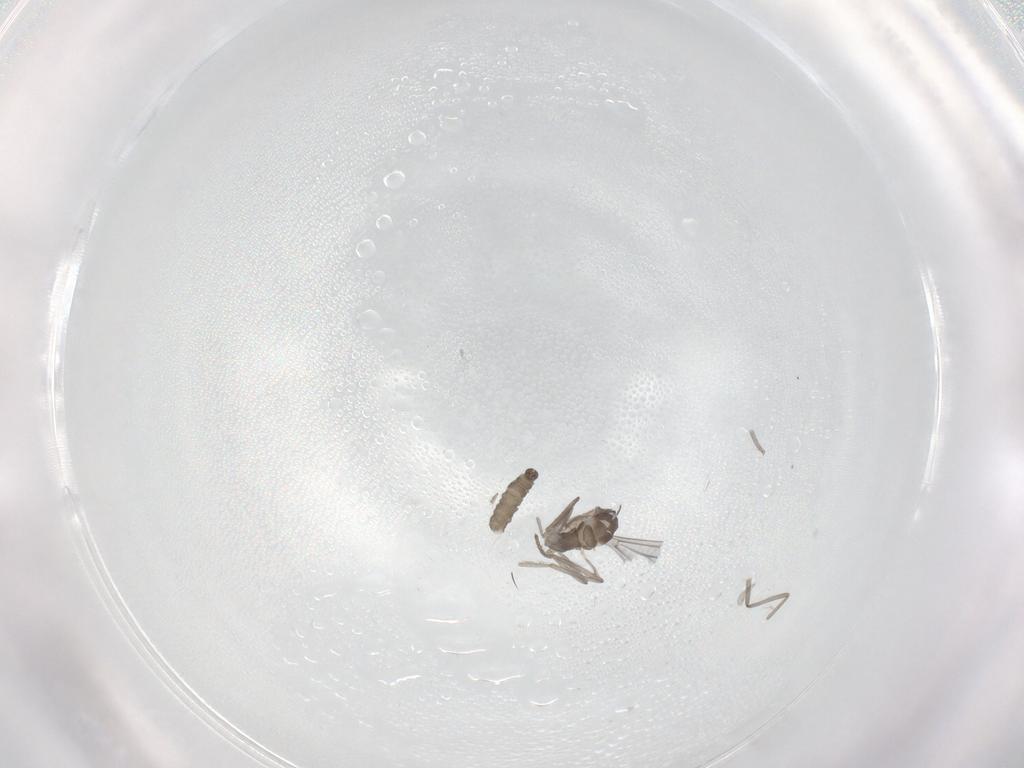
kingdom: Animalia
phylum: Arthropoda
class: Insecta
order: Diptera
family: Cecidomyiidae
